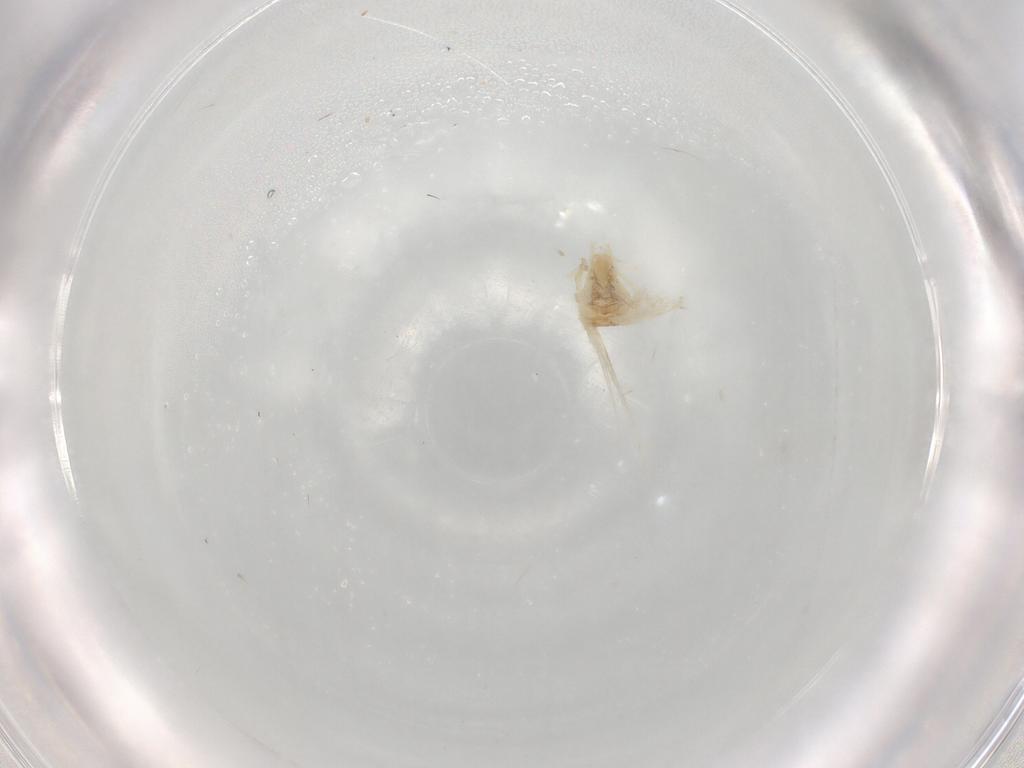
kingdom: Animalia
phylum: Arthropoda
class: Insecta
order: Lepidoptera
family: Nepticulidae
